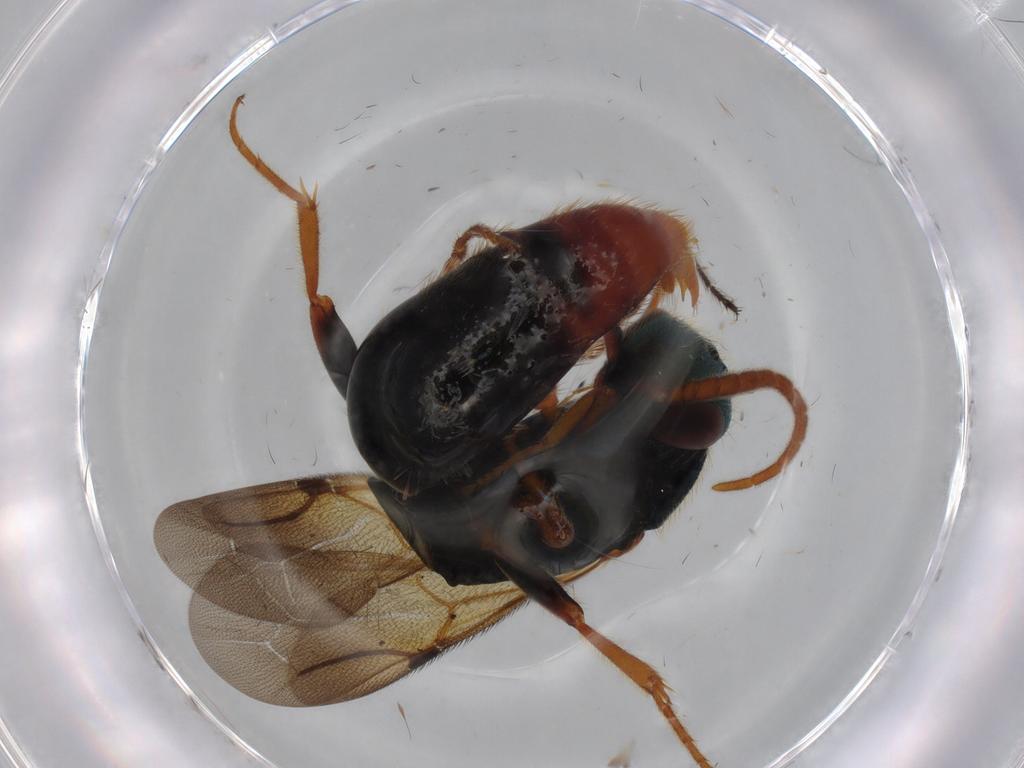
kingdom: Animalia
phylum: Arthropoda
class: Insecta
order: Hymenoptera
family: Bethylidae
